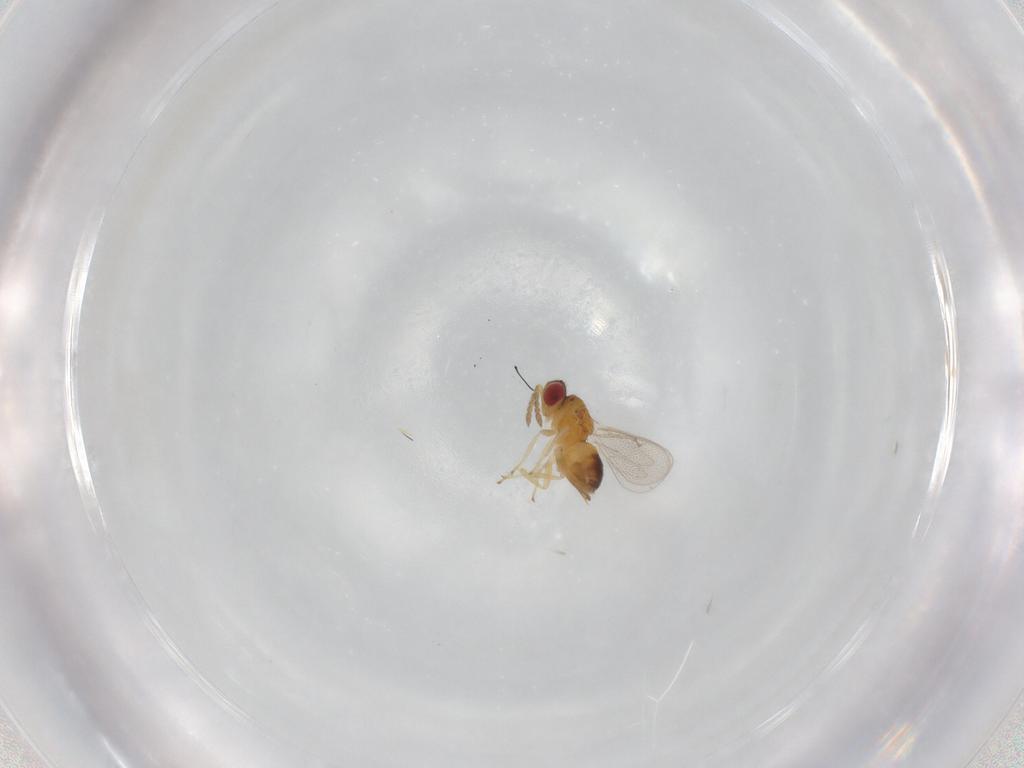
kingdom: Animalia
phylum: Arthropoda
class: Insecta
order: Hymenoptera
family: Eulophidae
